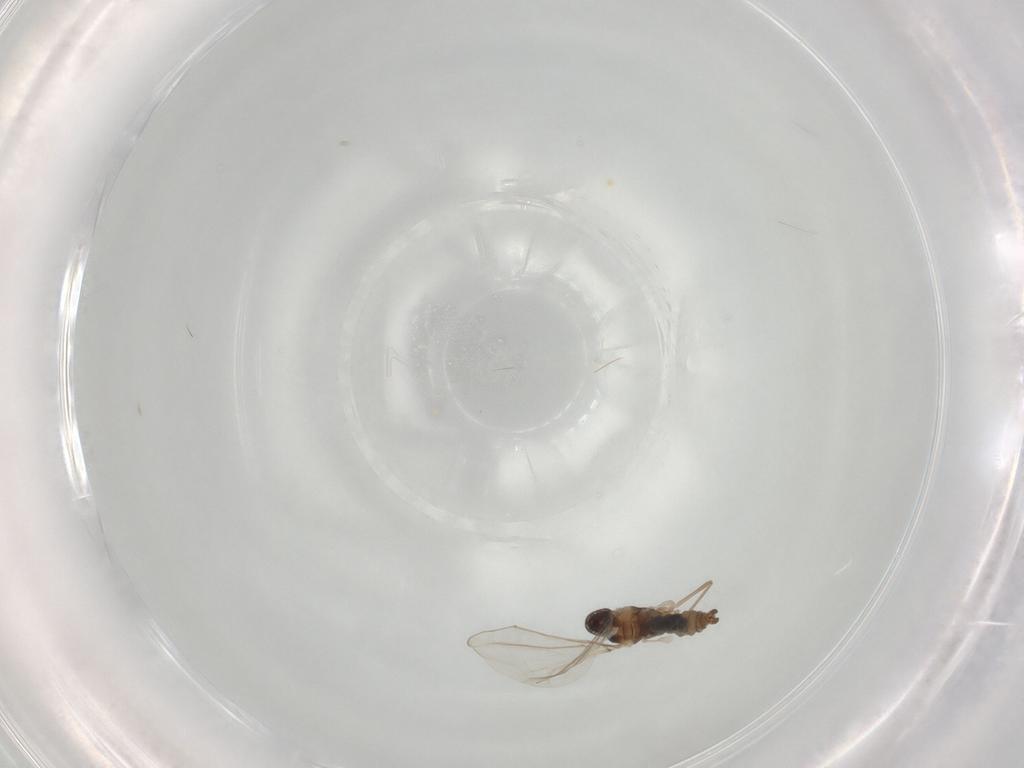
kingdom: Animalia
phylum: Arthropoda
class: Insecta
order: Diptera
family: Cecidomyiidae
